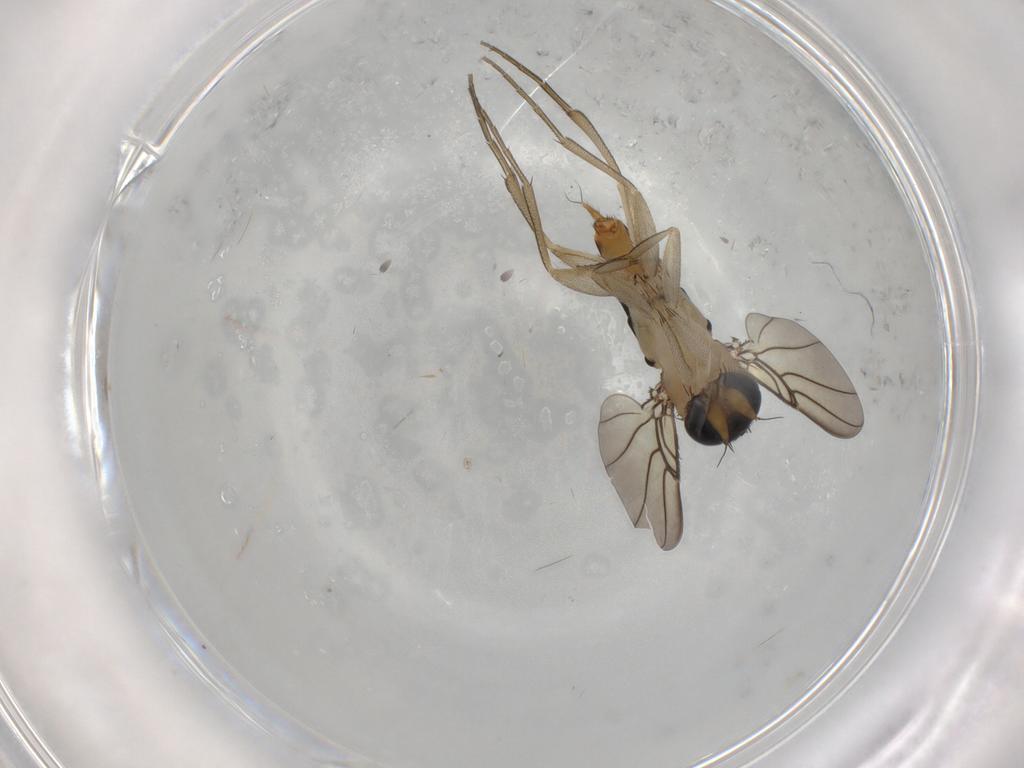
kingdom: Animalia
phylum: Arthropoda
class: Insecta
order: Diptera
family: Phoridae
